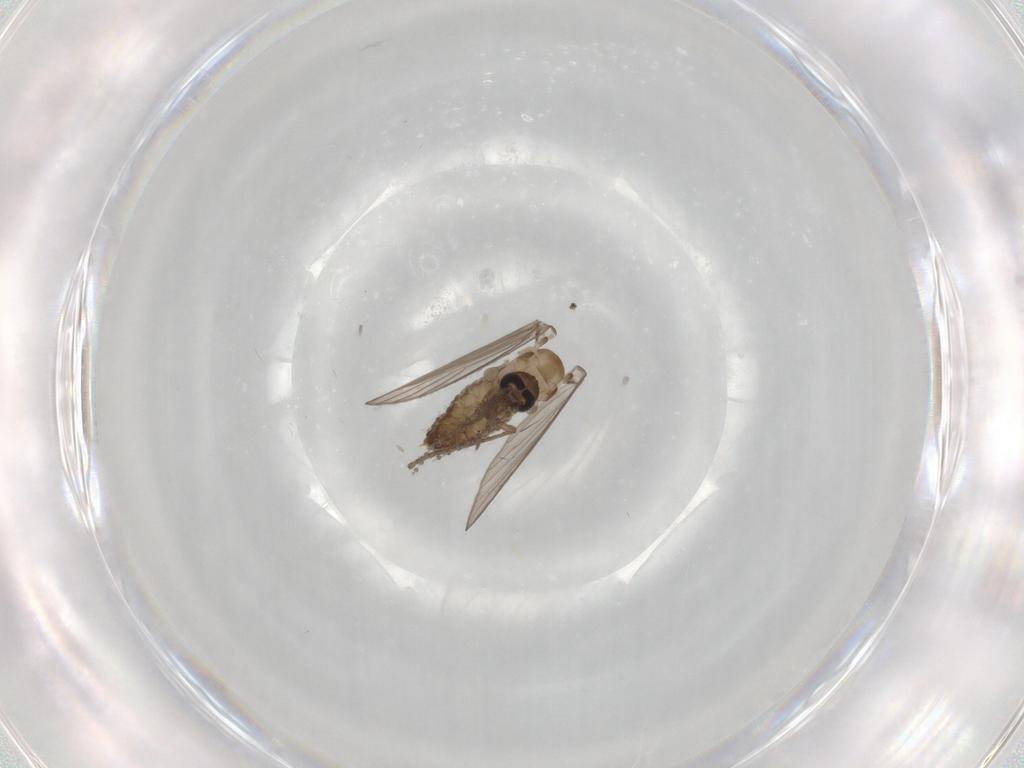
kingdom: Animalia
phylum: Arthropoda
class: Insecta
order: Diptera
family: Psychodidae
